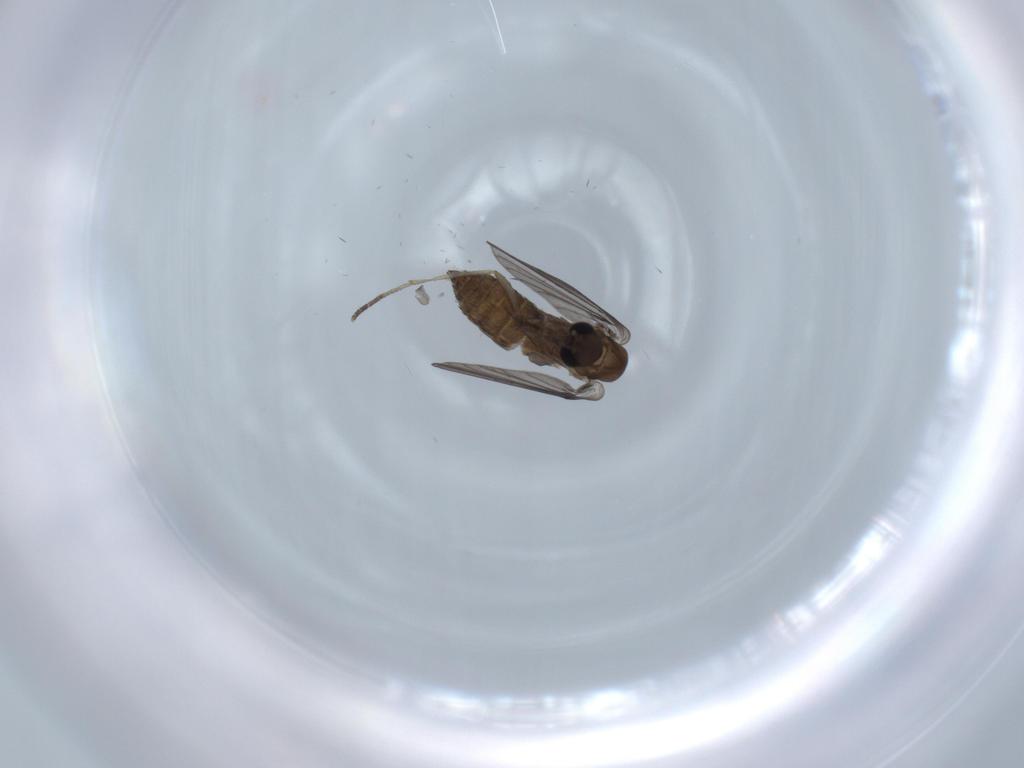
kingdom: Animalia
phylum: Arthropoda
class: Insecta
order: Diptera
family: Psychodidae
